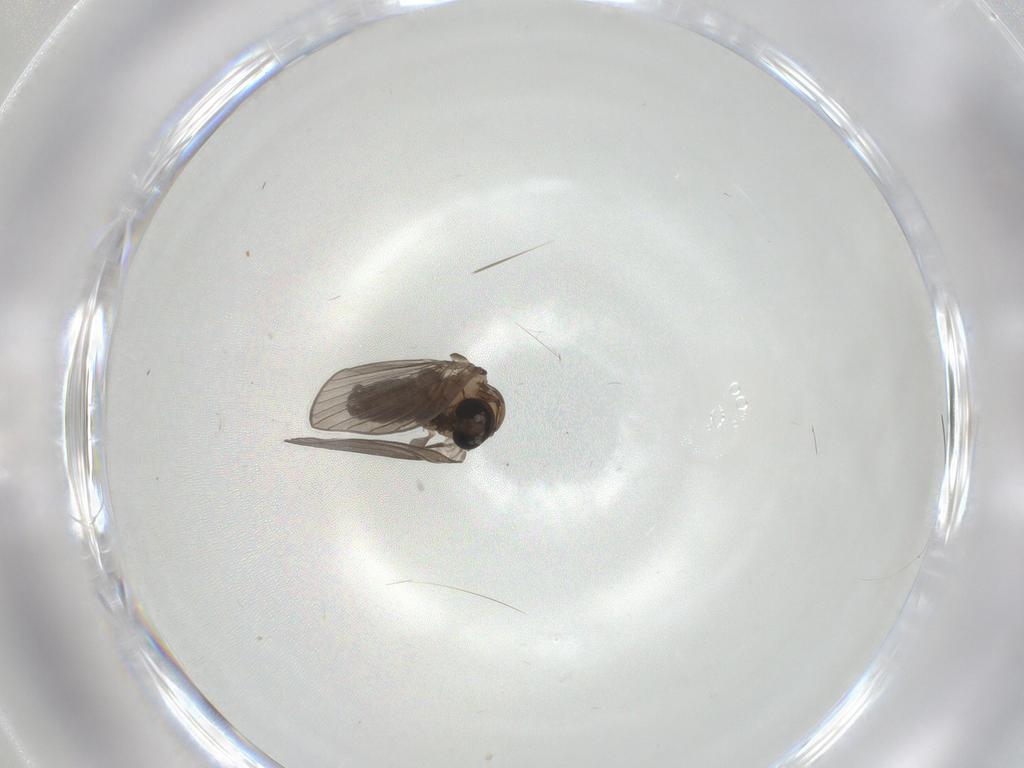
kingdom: Animalia
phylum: Arthropoda
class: Insecta
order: Diptera
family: Psychodidae
